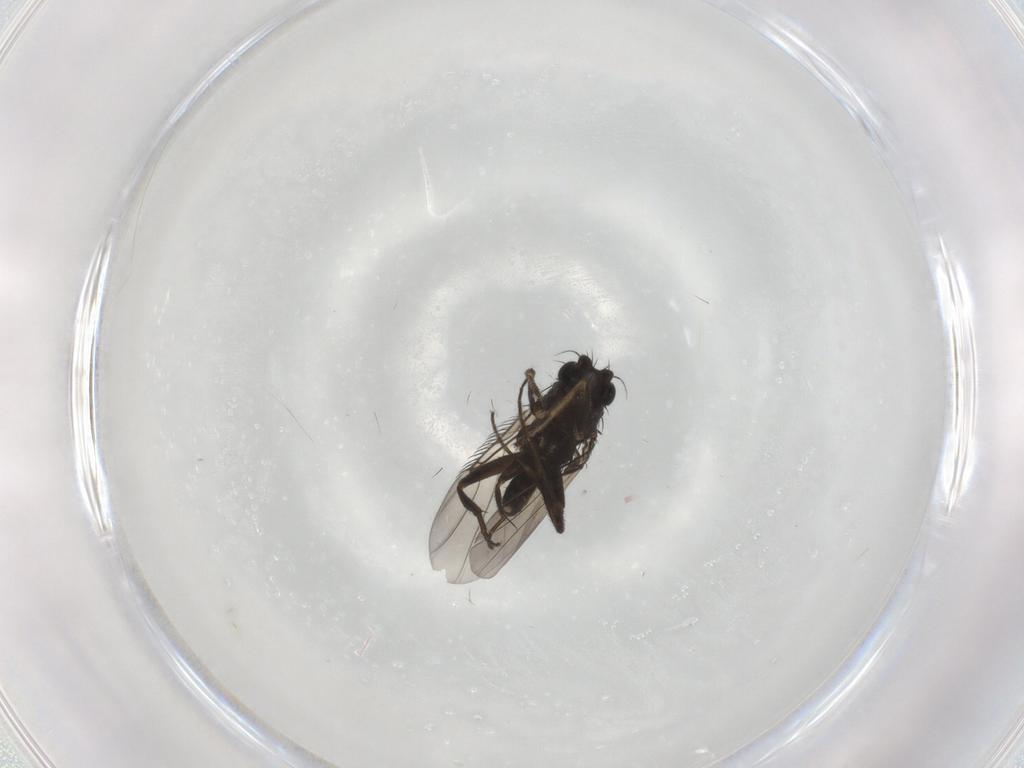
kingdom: Animalia
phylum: Arthropoda
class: Insecta
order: Diptera
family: Phoridae
